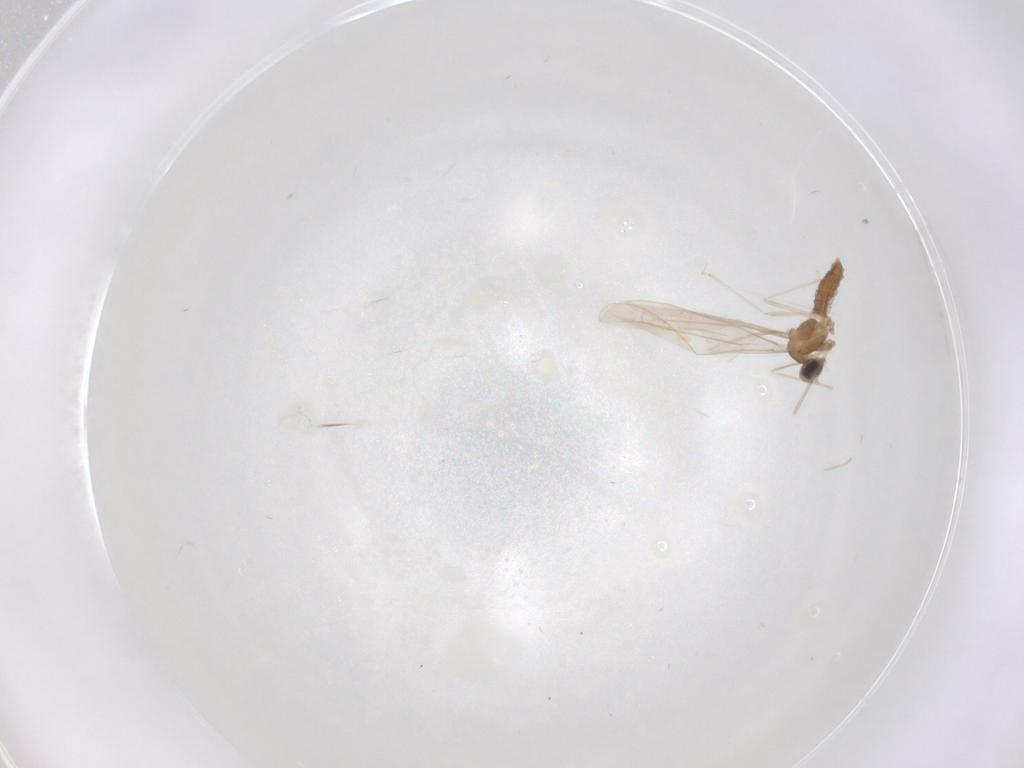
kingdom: Animalia
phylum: Arthropoda
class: Insecta
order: Diptera
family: Cecidomyiidae
